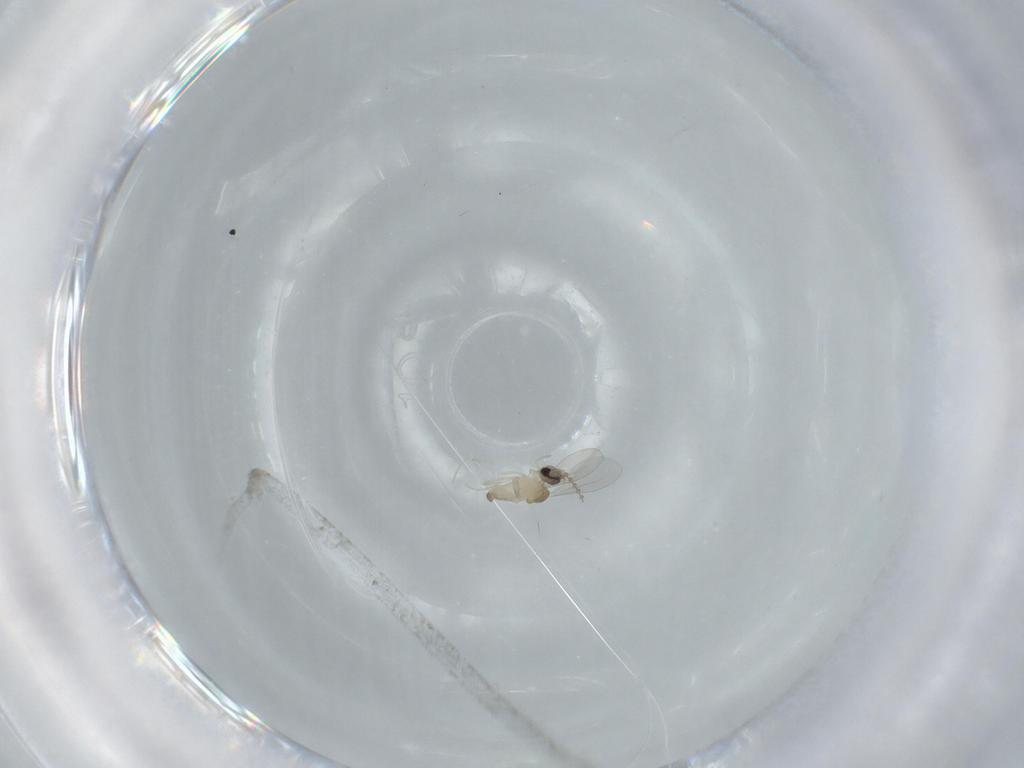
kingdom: Animalia
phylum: Arthropoda
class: Insecta
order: Diptera
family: Cecidomyiidae
